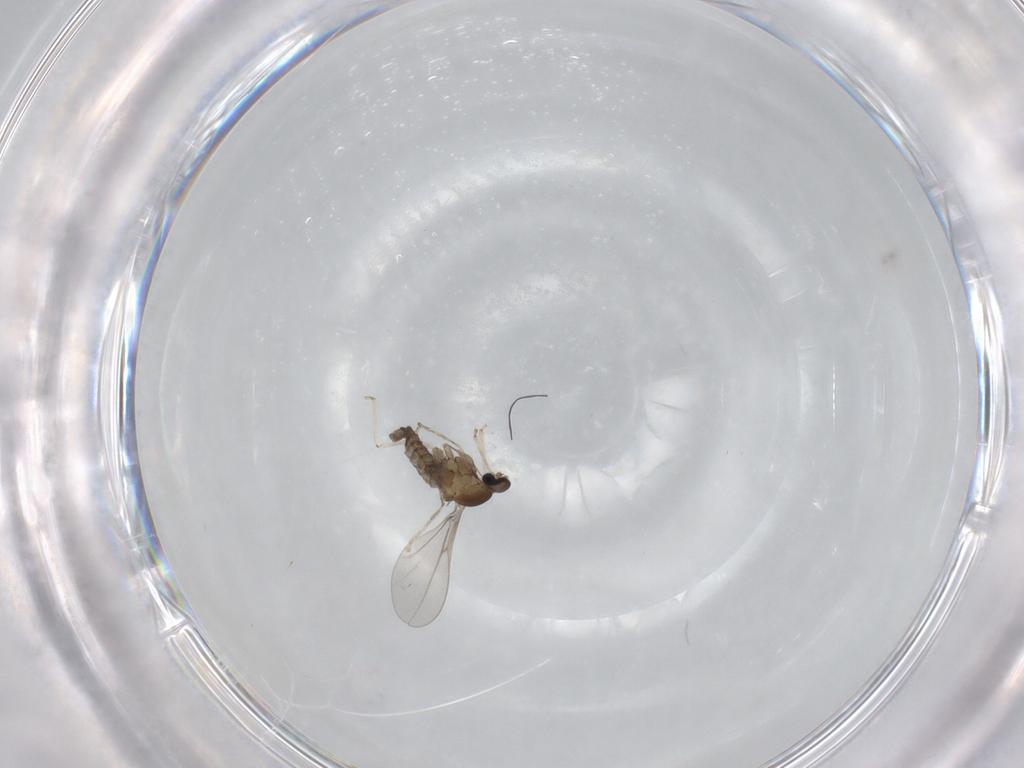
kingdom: Animalia
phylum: Arthropoda
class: Insecta
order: Diptera
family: Cecidomyiidae
